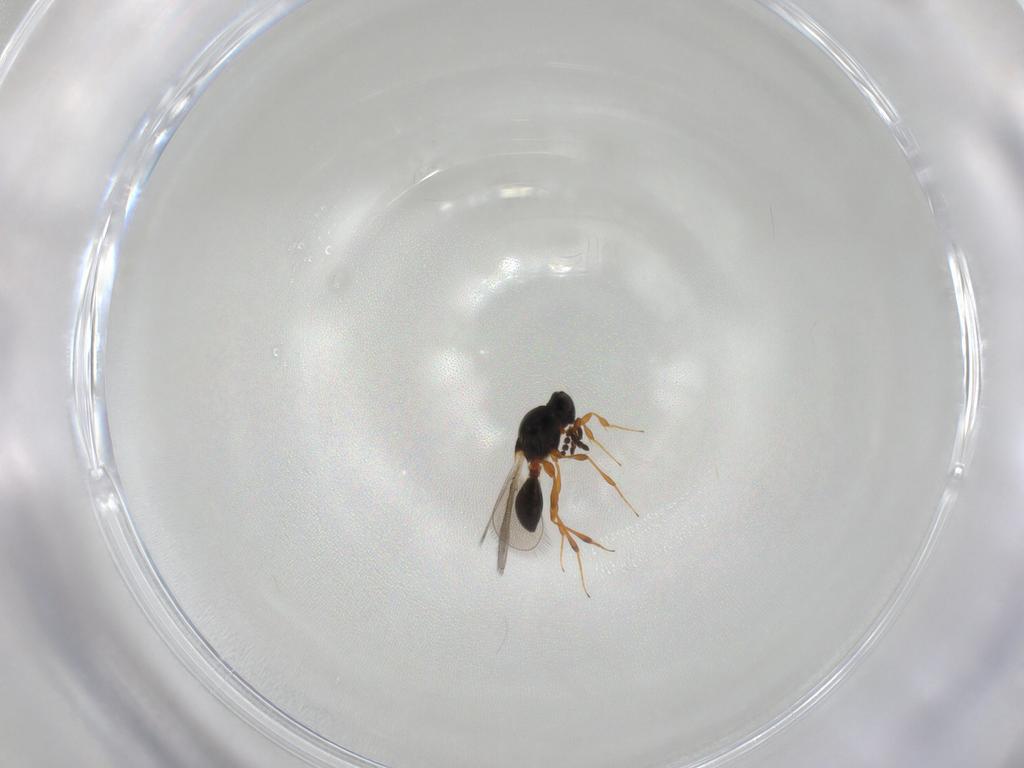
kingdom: Animalia
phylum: Arthropoda
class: Insecta
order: Hymenoptera
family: Platygastridae
